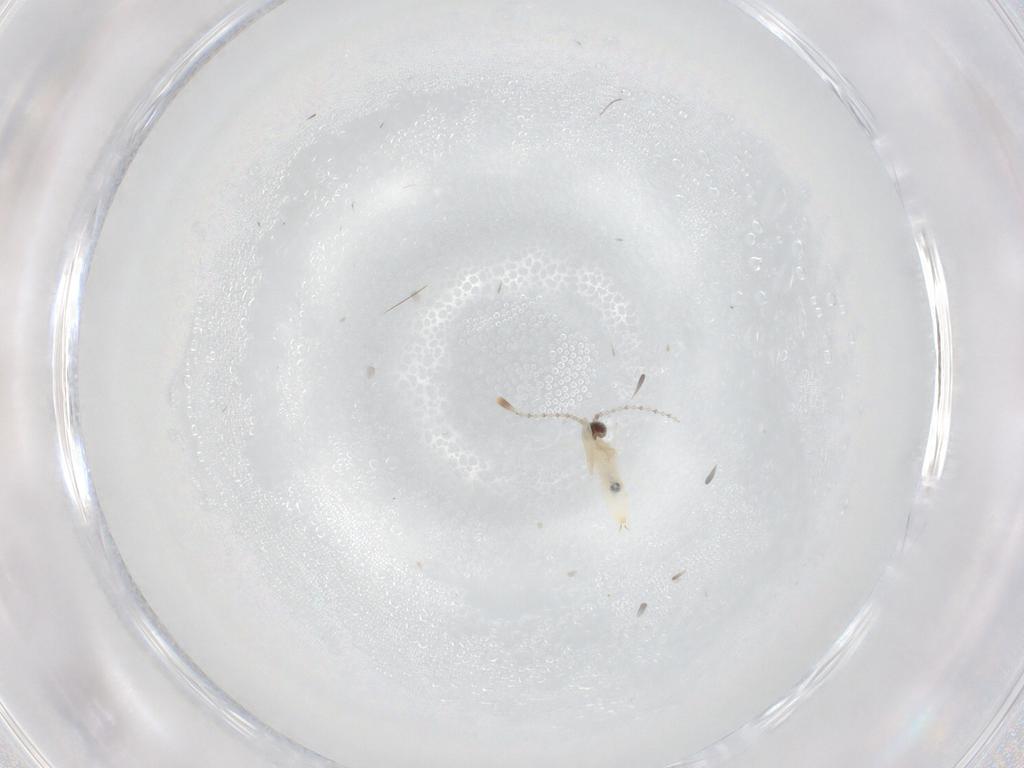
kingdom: Animalia
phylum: Arthropoda
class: Insecta
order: Diptera
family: Cecidomyiidae
